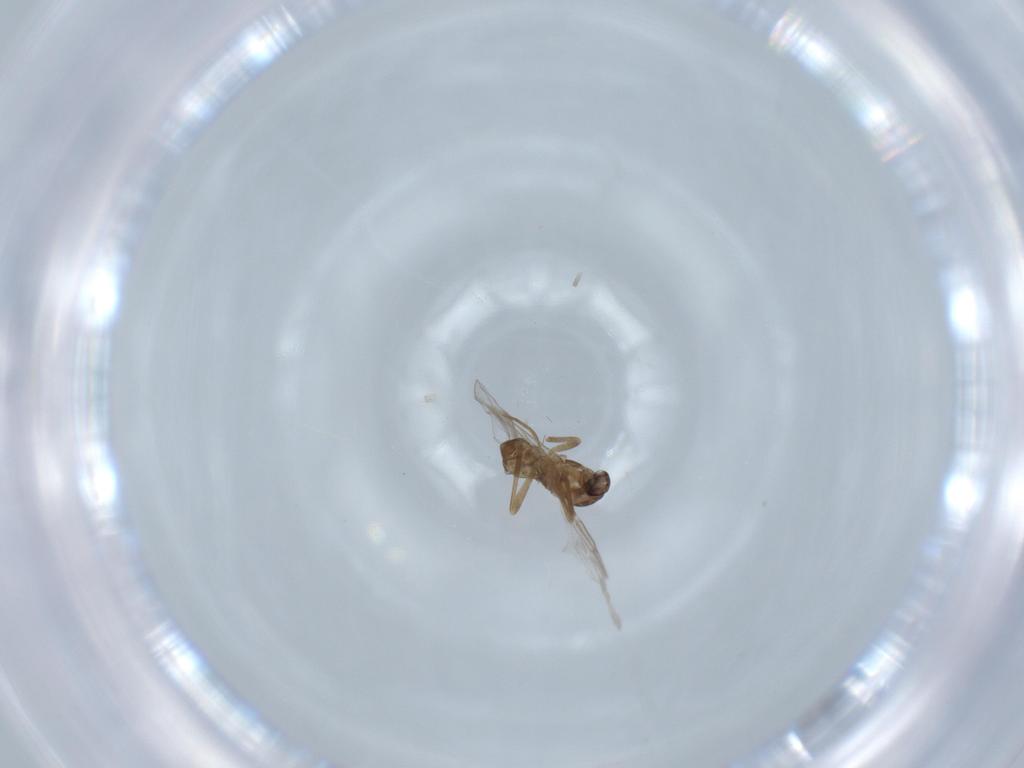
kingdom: Animalia
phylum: Arthropoda
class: Insecta
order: Diptera
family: Cecidomyiidae
